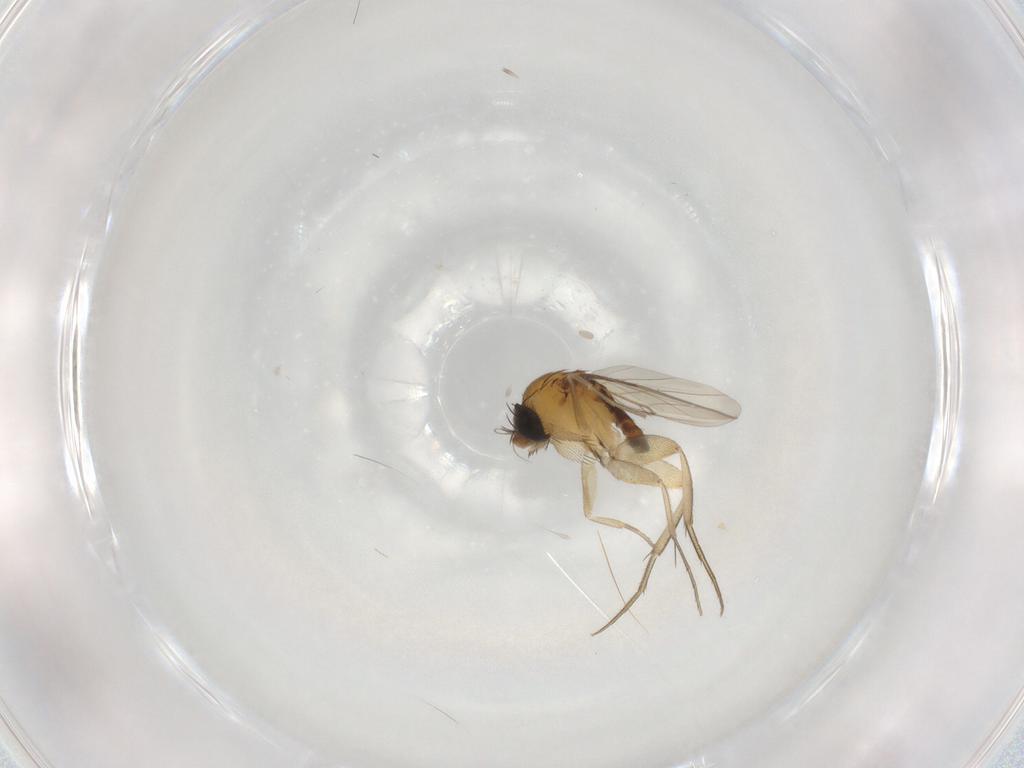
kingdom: Animalia
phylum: Arthropoda
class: Insecta
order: Diptera
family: Phoridae
